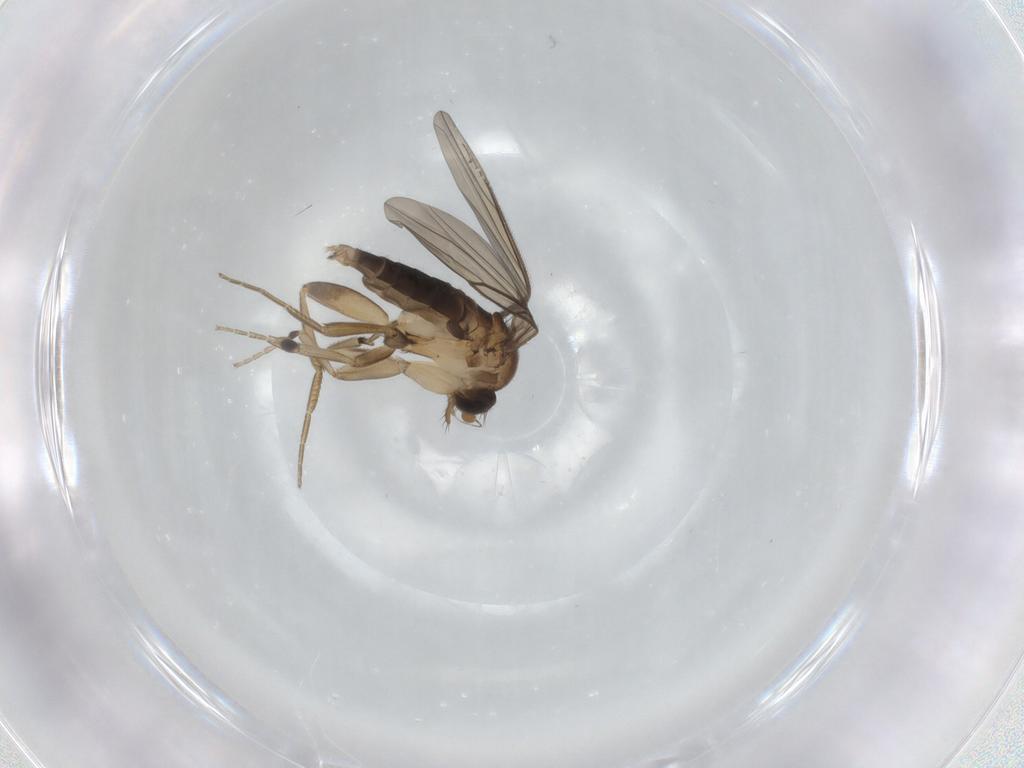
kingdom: Animalia
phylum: Arthropoda
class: Insecta
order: Diptera
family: Phoridae
